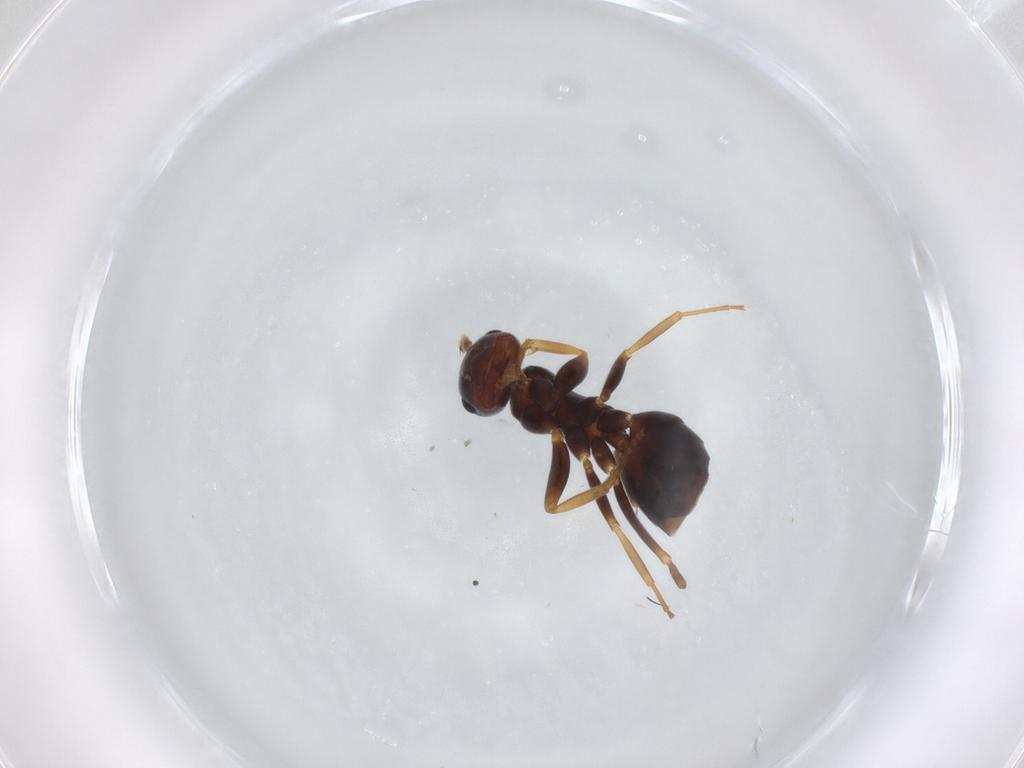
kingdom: Animalia
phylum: Arthropoda
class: Insecta
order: Hymenoptera
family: Formicidae
